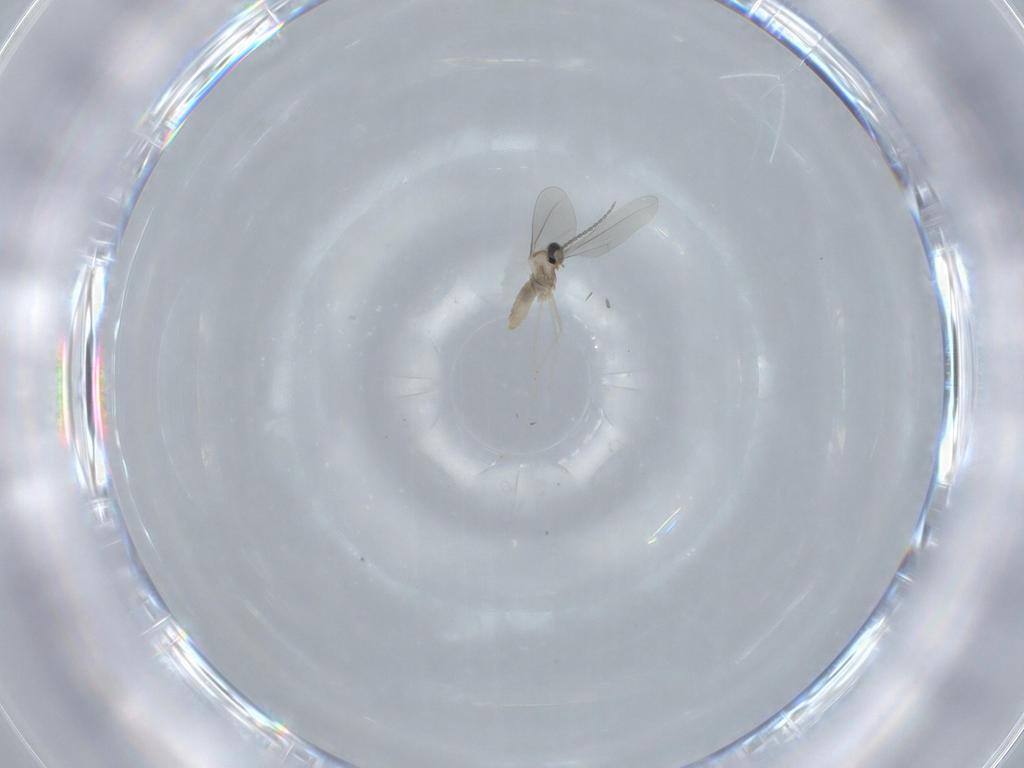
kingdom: Animalia
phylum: Arthropoda
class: Insecta
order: Diptera
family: Cecidomyiidae
